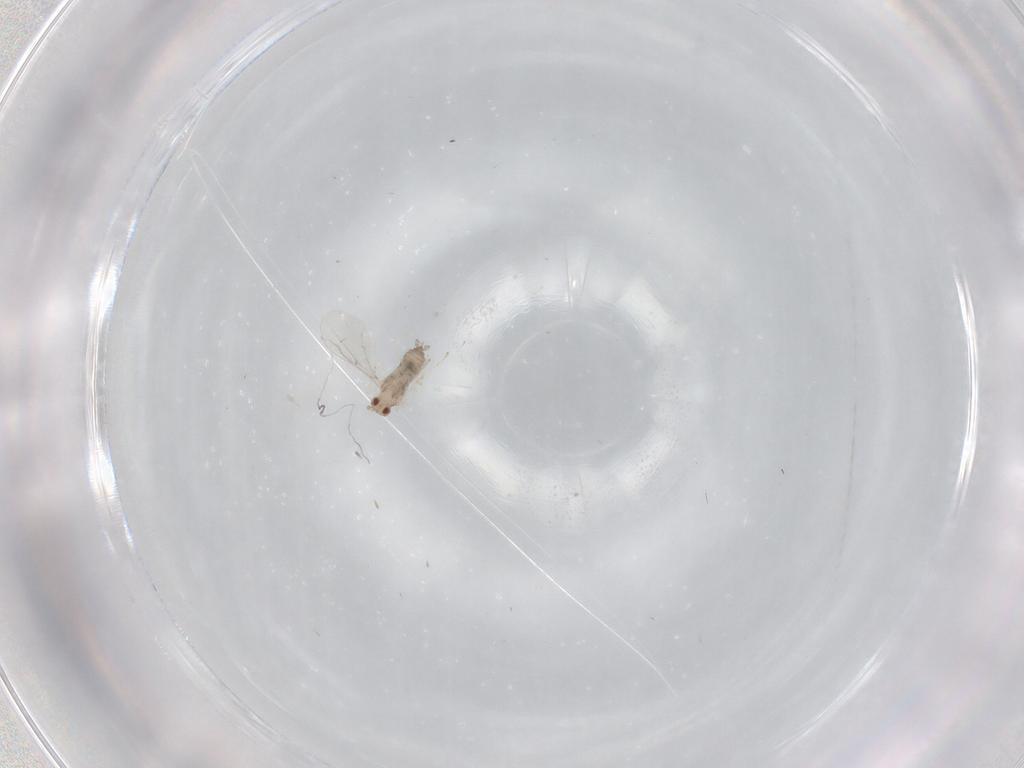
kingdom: Animalia
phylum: Arthropoda
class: Insecta
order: Diptera
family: Cecidomyiidae
